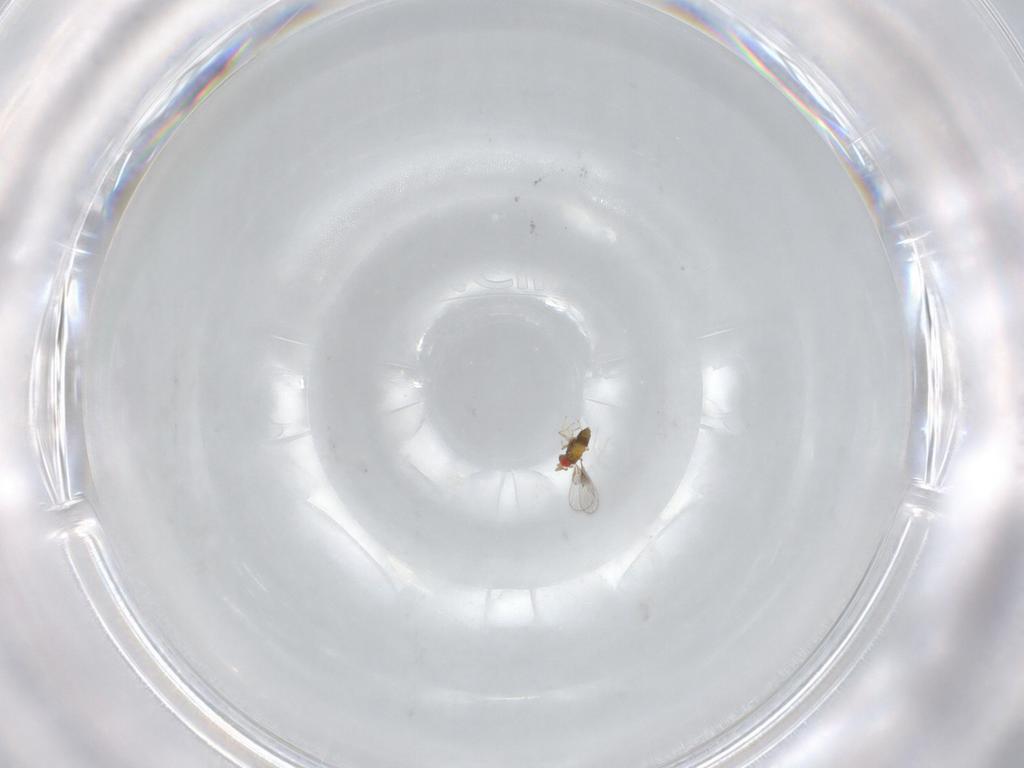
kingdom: Animalia
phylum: Arthropoda
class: Insecta
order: Hymenoptera
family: Trichogrammatidae
